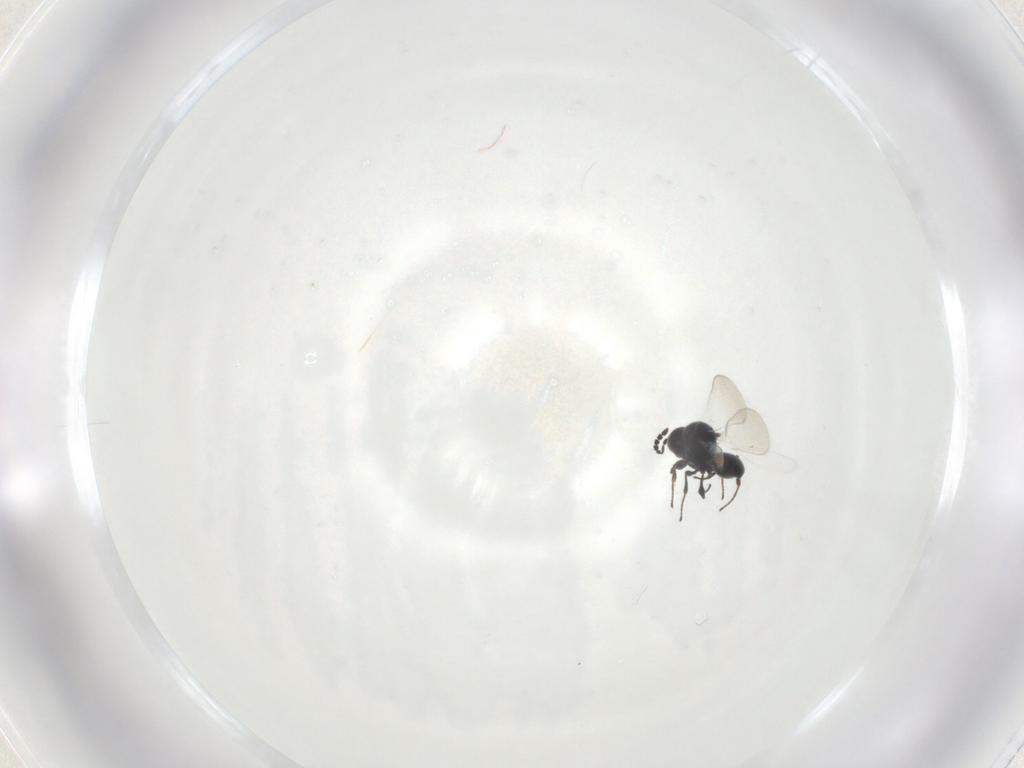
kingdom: Animalia
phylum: Arthropoda
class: Insecta
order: Hymenoptera
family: Platygastridae
